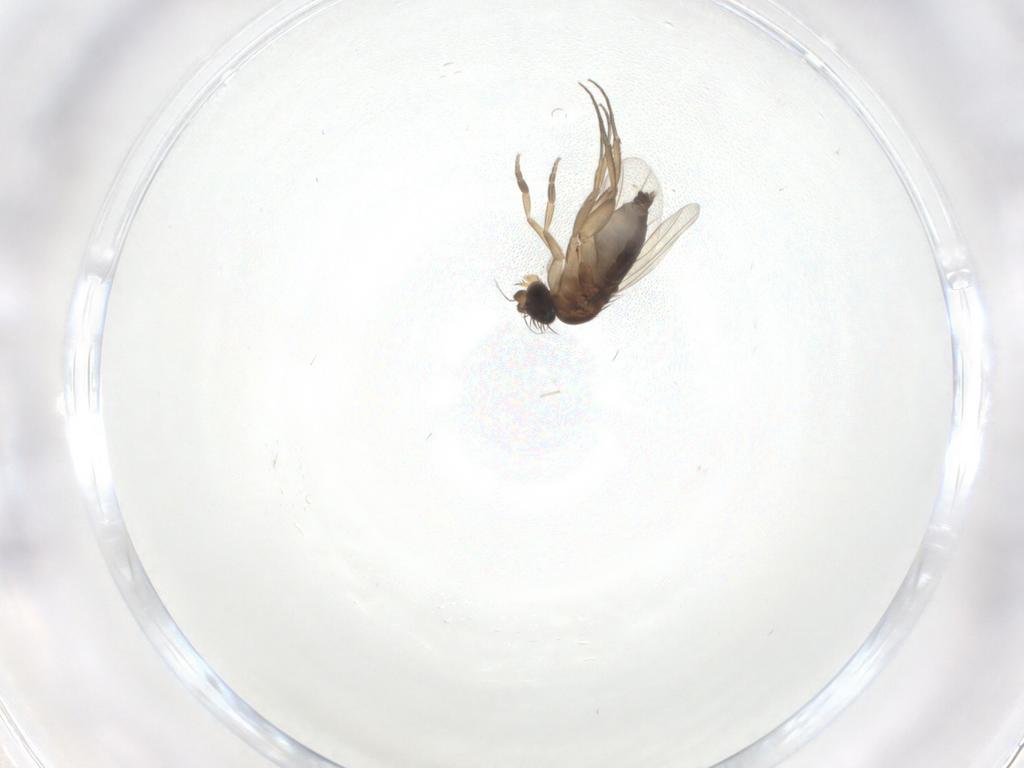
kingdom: Animalia
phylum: Arthropoda
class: Insecta
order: Diptera
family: Phoridae
